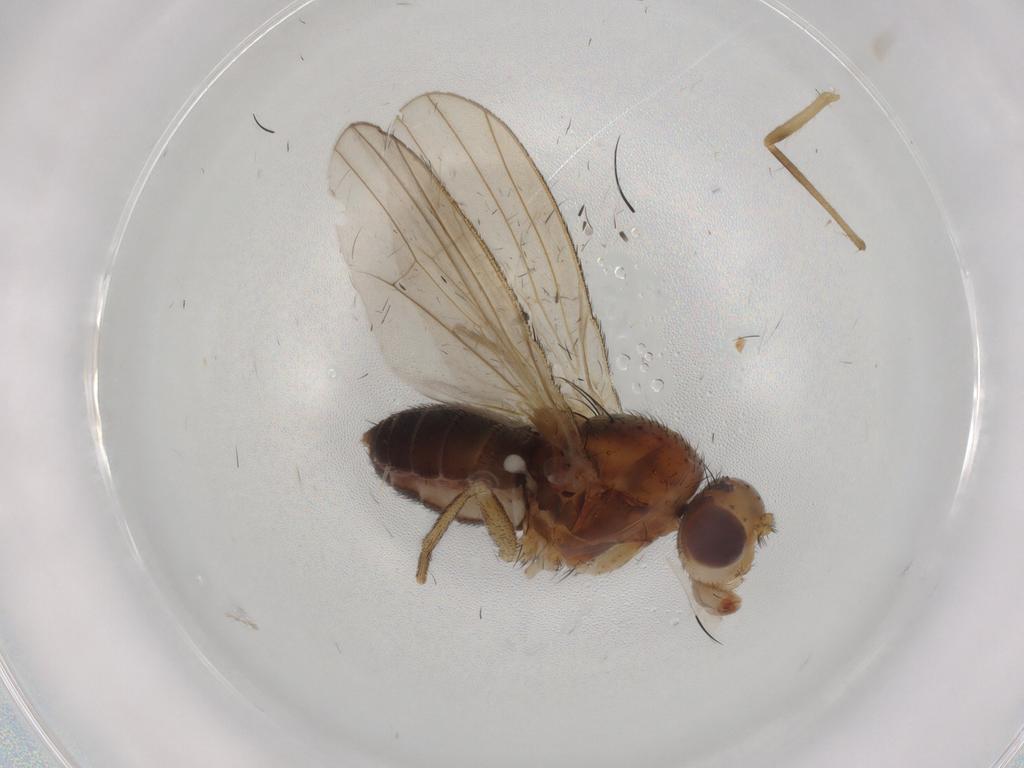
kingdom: Animalia
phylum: Arthropoda
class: Insecta
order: Diptera
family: Heleomyzidae
